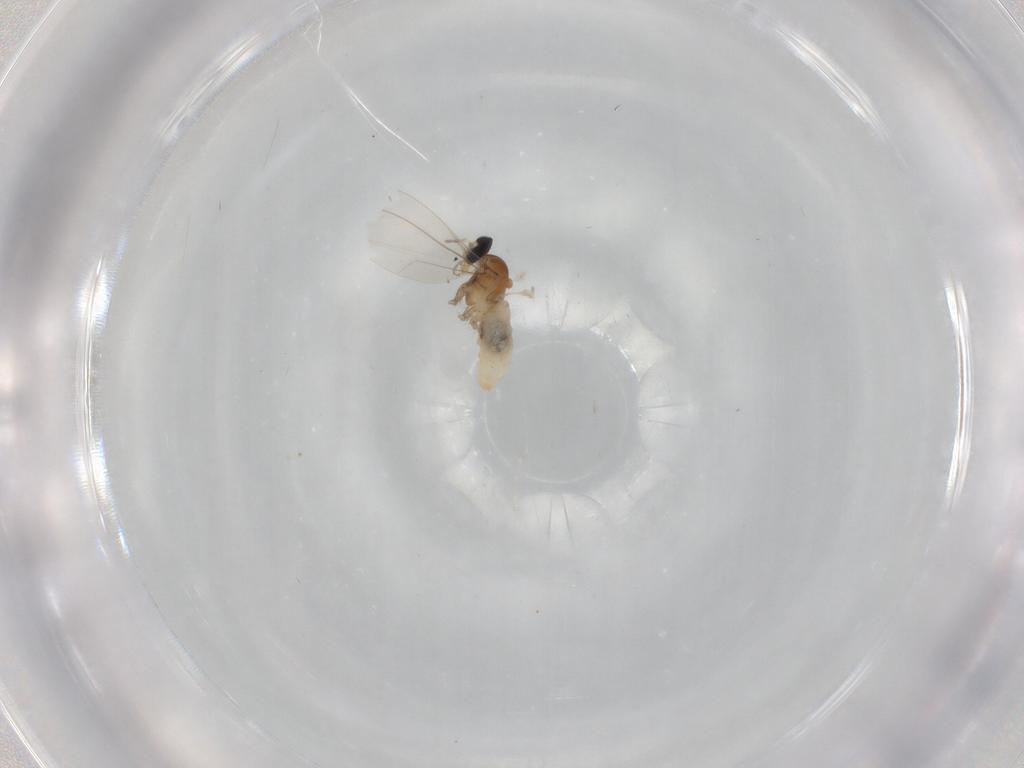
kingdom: Animalia
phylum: Arthropoda
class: Insecta
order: Diptera
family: Cecidomyiidae
